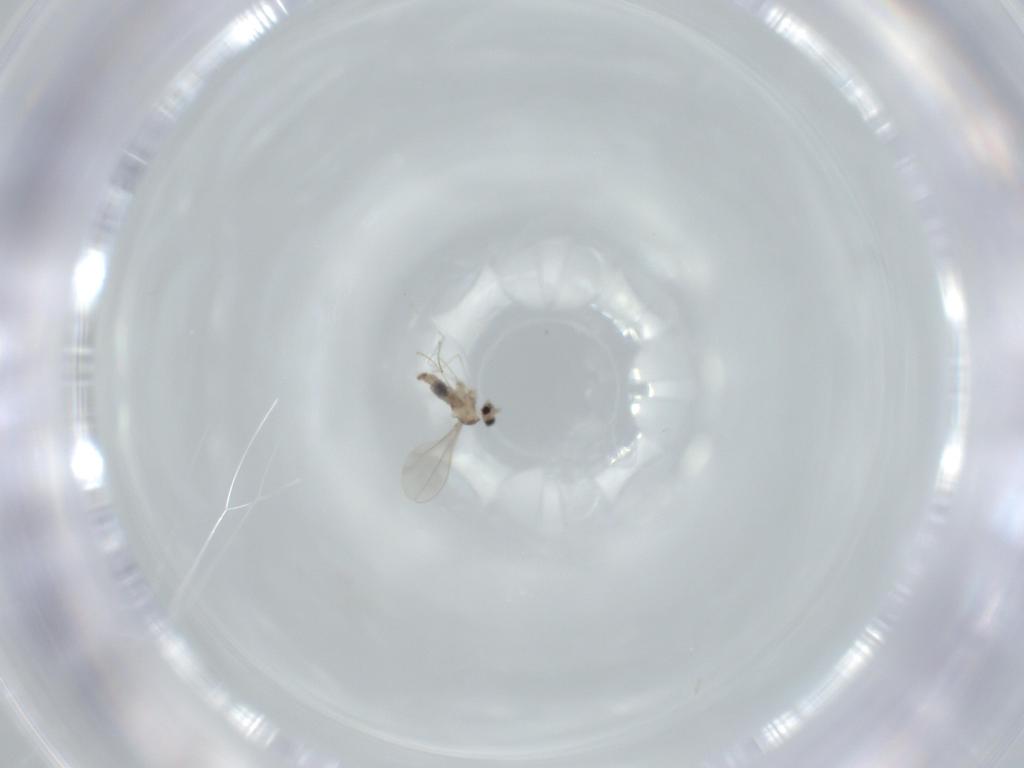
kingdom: Animalia
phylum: Arthropoda
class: Insecta
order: Diptera
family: Cecidomyiidae
